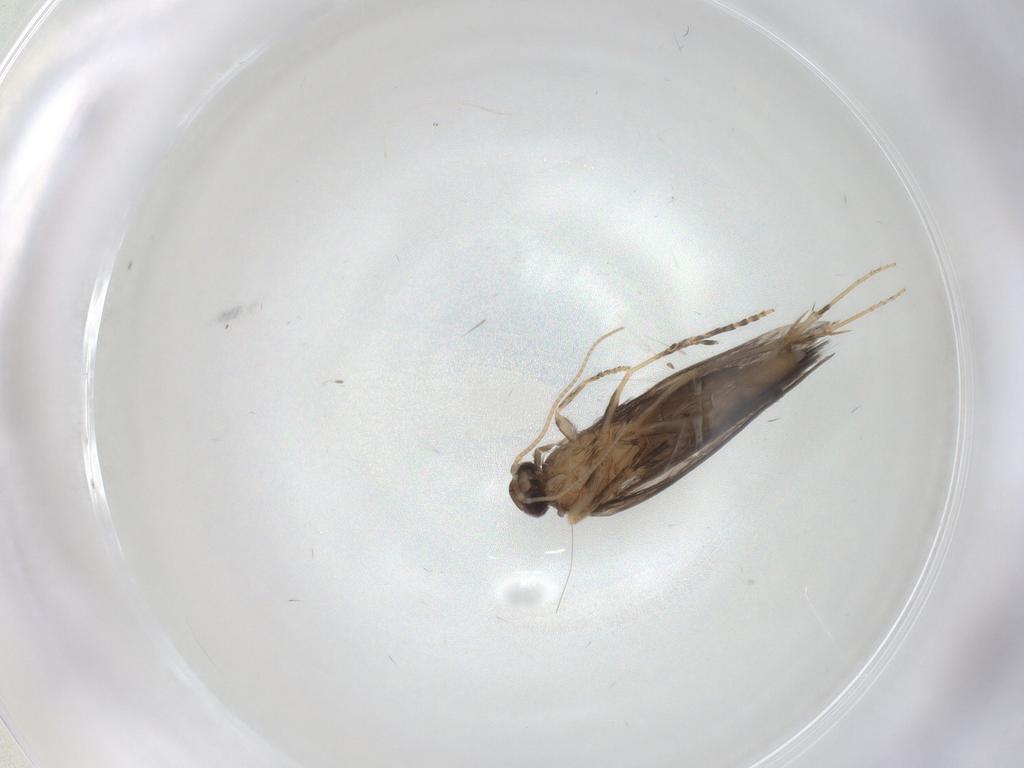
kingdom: Animalia
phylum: Arthropoda
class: Insecta
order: Trichoptera
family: Hydroptilidae
